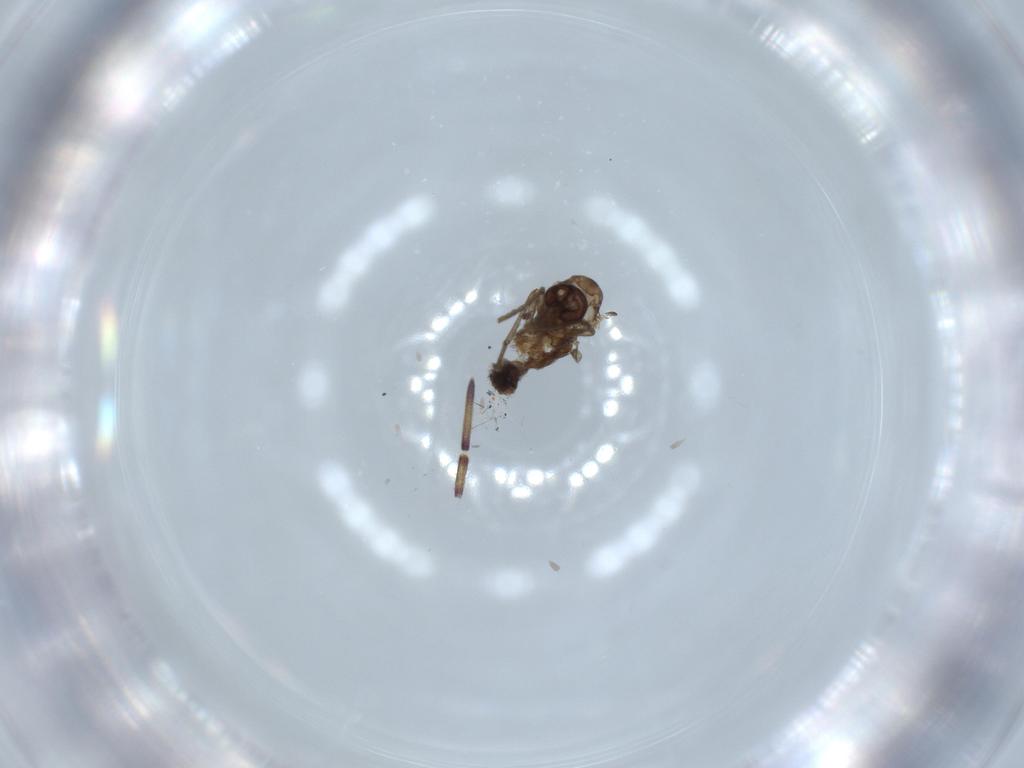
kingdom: Animalia
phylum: Arthropoda
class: Insecta
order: Diptera
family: Psychodidae
